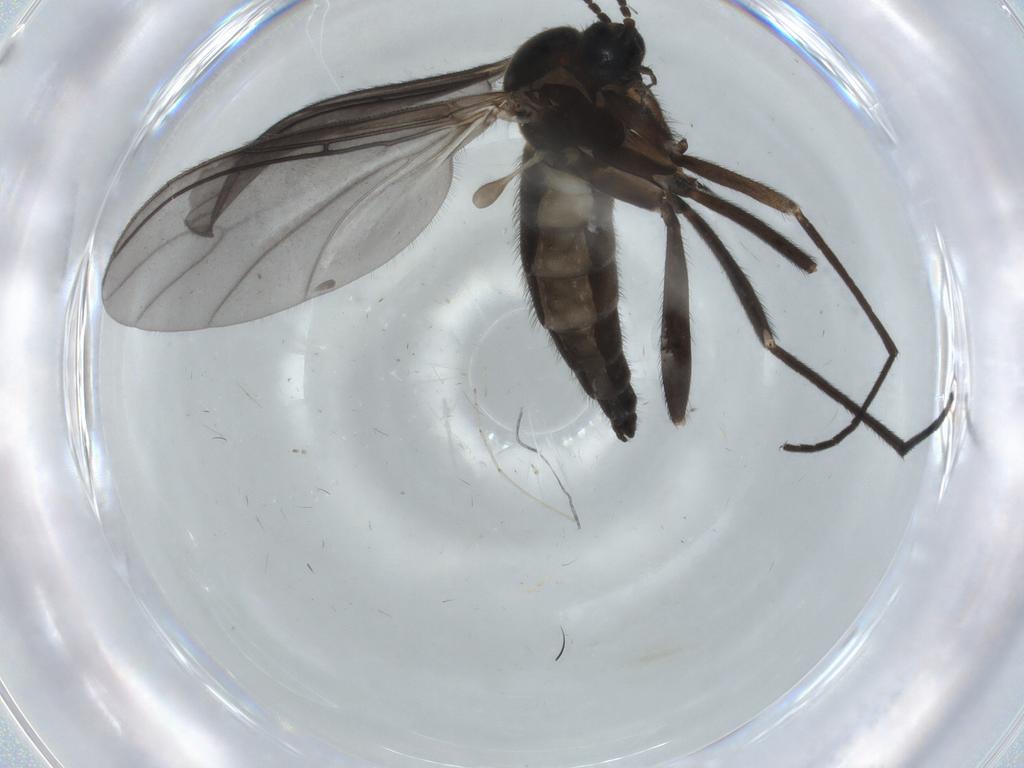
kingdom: Animalia
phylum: Arthropoda
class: Insecta
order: Diptera
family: Sciaridae
